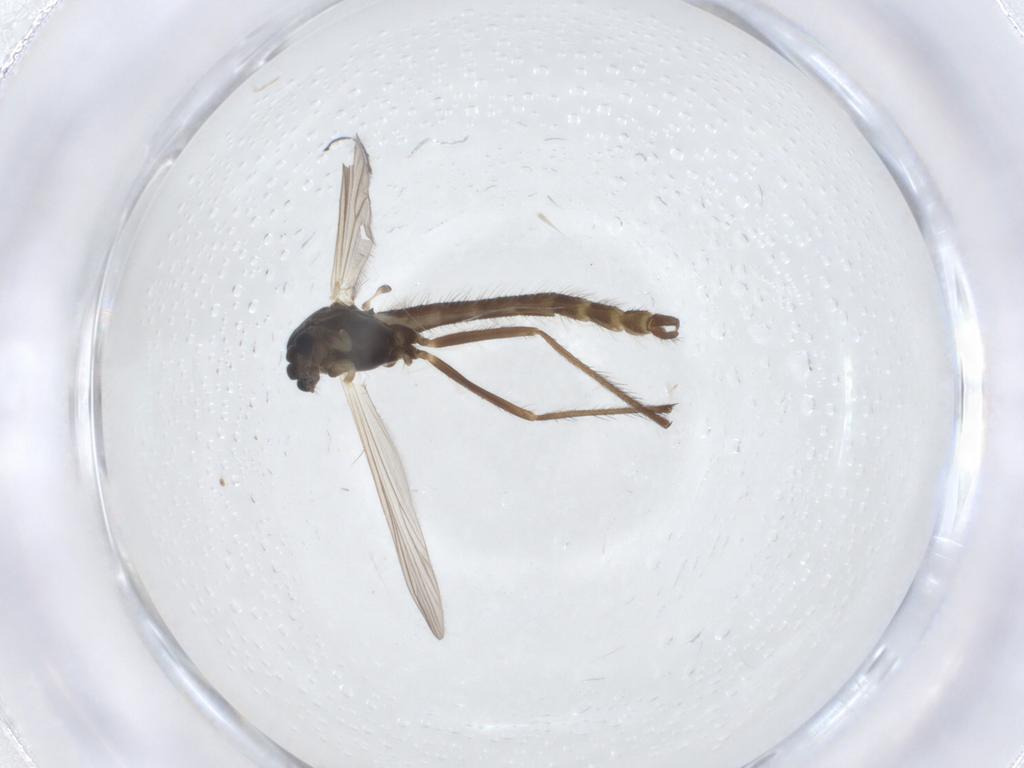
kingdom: Animalia
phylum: Arthropoda
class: Insecta
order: Diptera
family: Chironomidae
